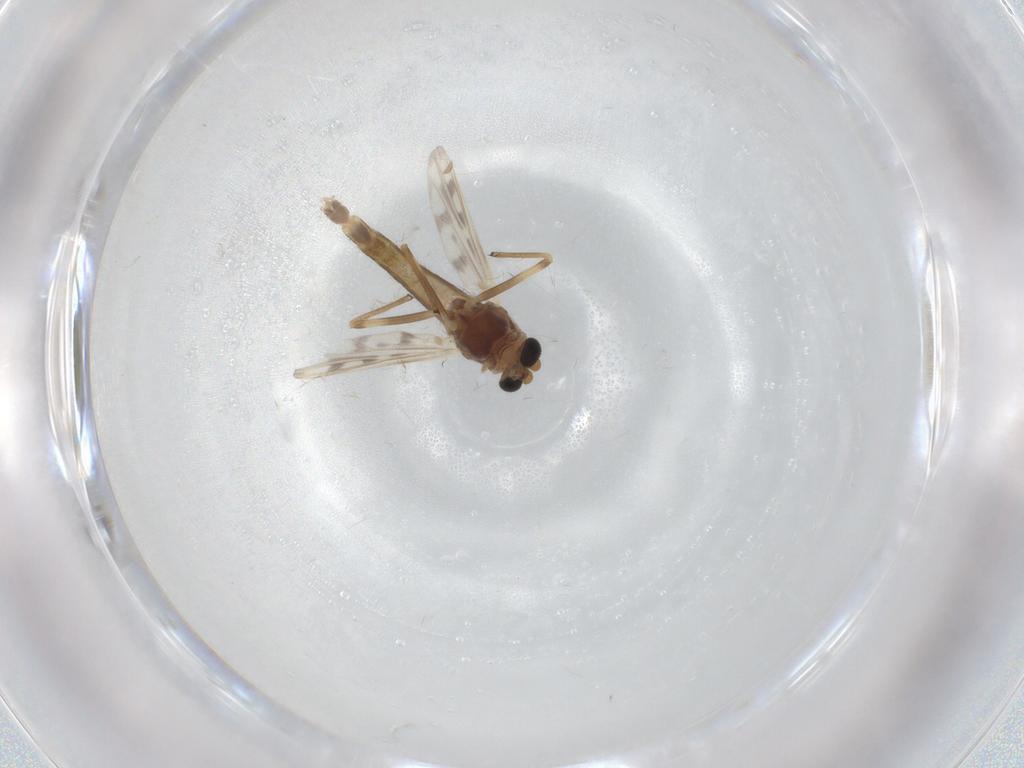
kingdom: Animalia
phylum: Arthropoda
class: Insecta
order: Diptera
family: Chironomidae
